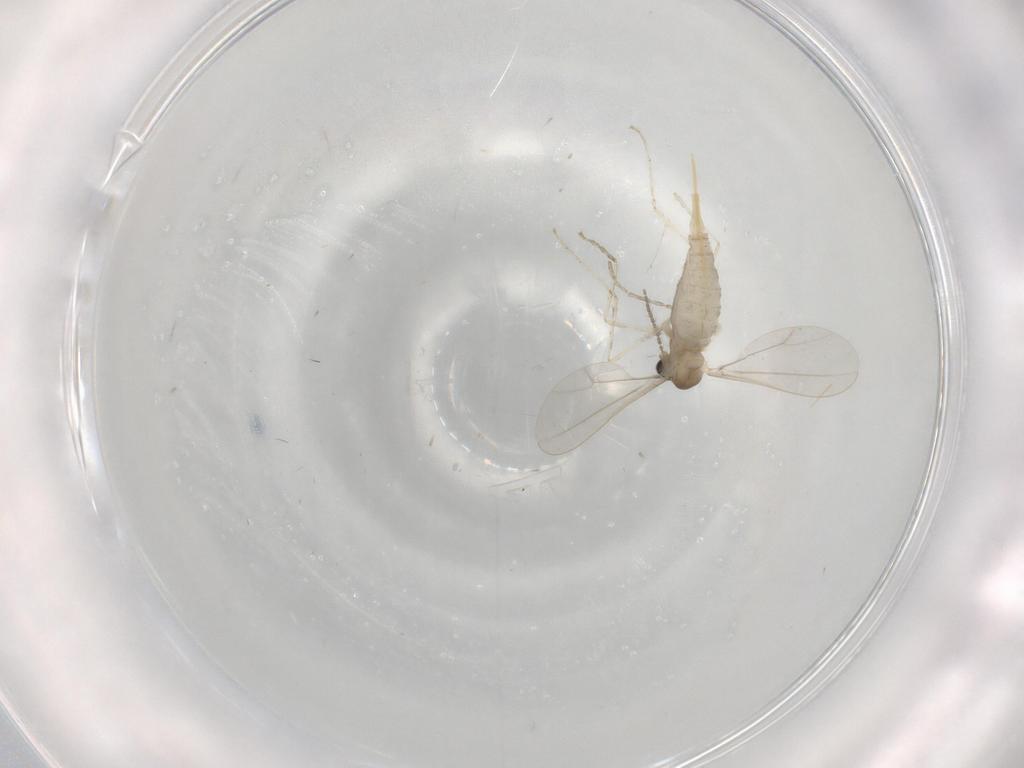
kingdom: Animalia
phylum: Arthropoda
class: Insecta
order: Diptera
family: Cecidomyiidae
